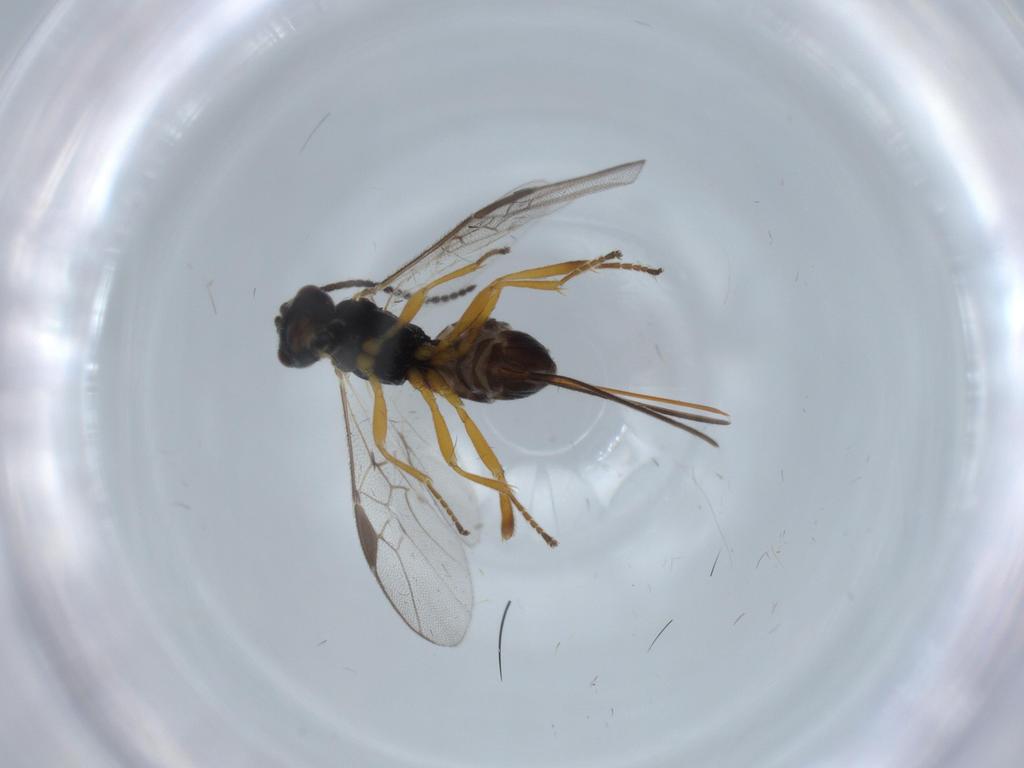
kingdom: Animalia
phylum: Arthropoda
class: Insecta
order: Hymenoptera
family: Braconidae
